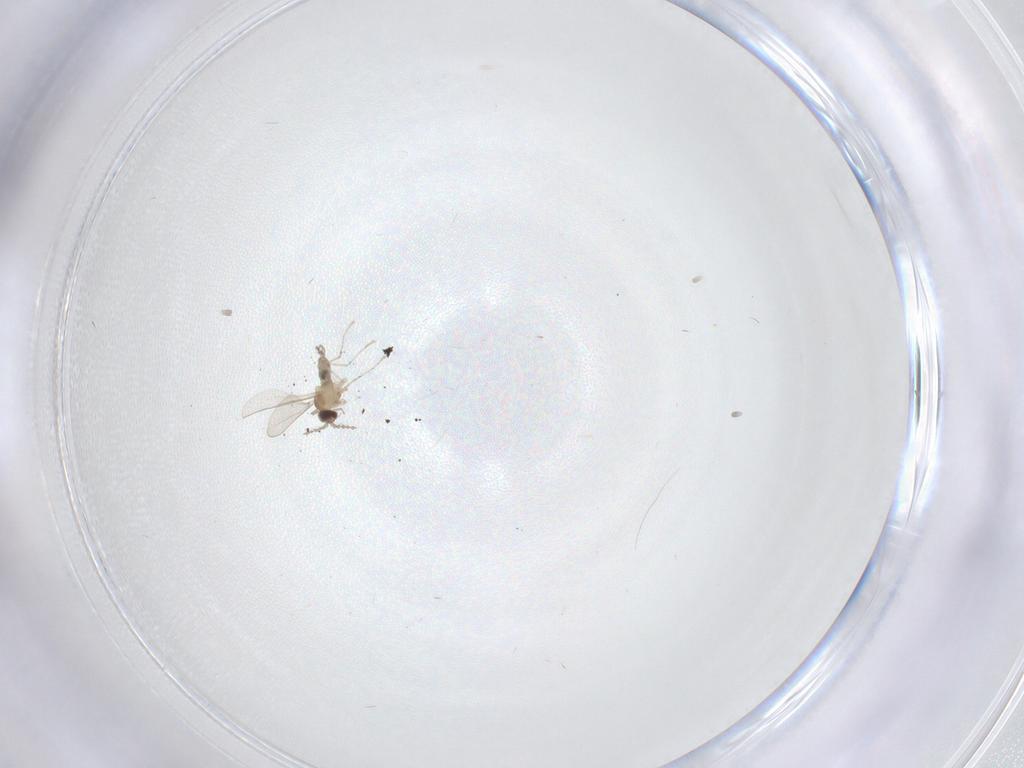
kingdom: Animalia
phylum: Arthropoda
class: Insecta
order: Diptera
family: Cecidomyiidae
